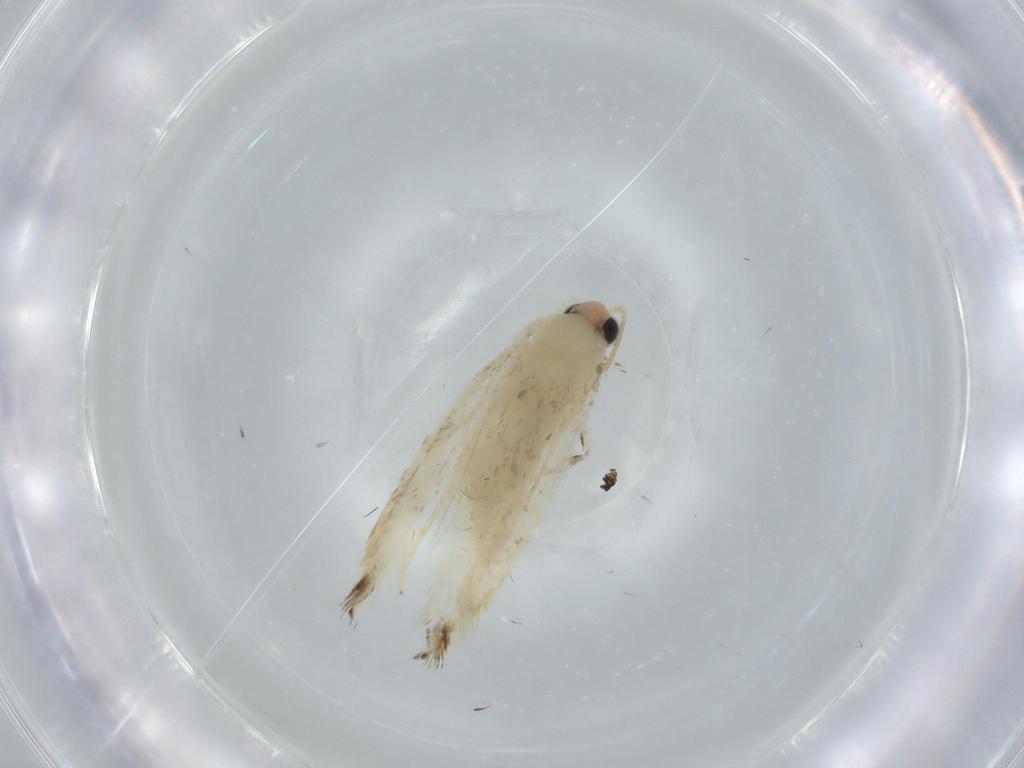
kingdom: Animalia
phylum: Arthropoda
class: Insecta
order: Lepidoptera
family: Tineidae
